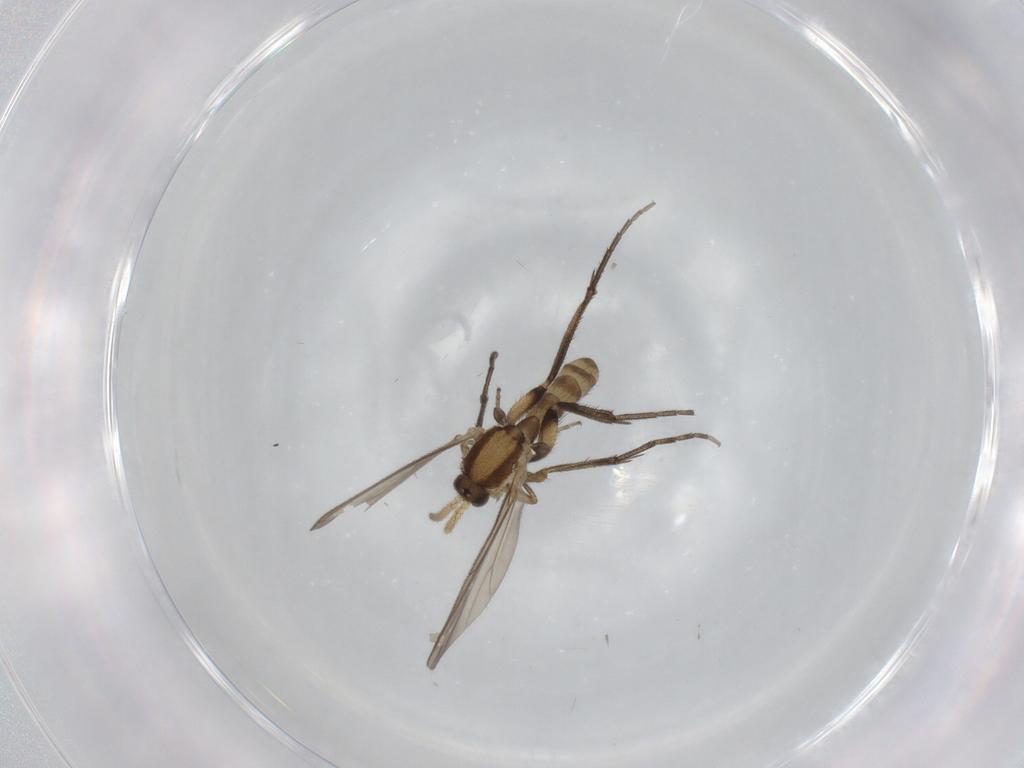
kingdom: Animalia
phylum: Arthropoda
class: Insecta
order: Diptera
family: Mycetophilidae
